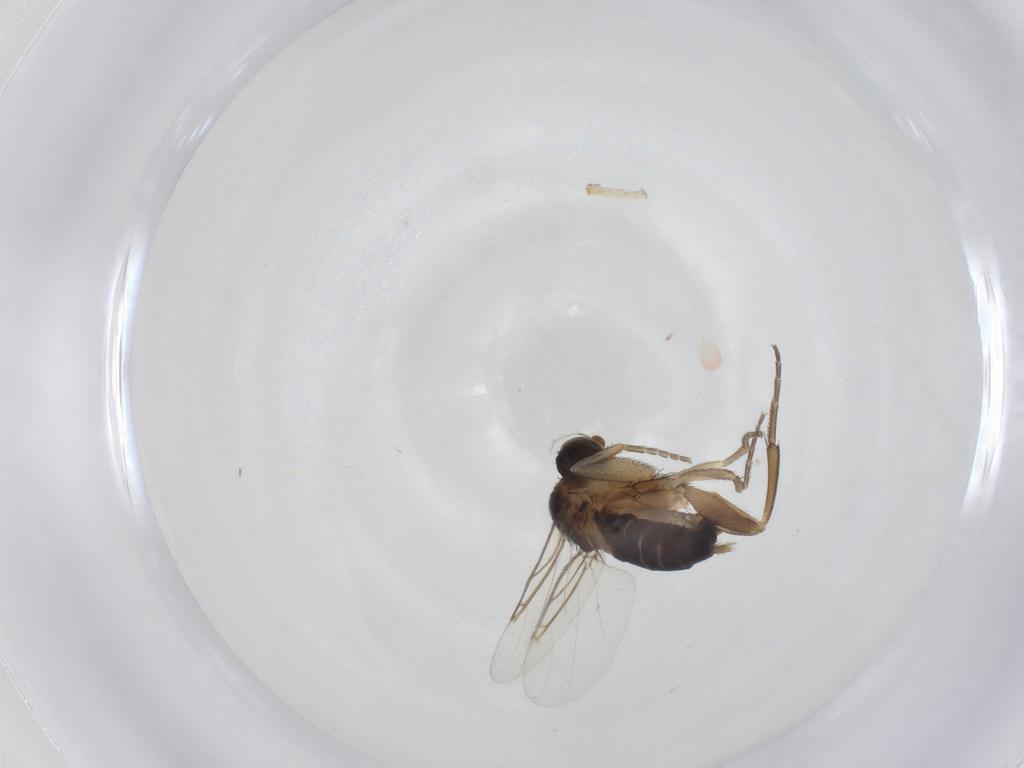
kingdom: Animalia
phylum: Arthropoda
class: Insecta
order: Diptera
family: Phoridae
